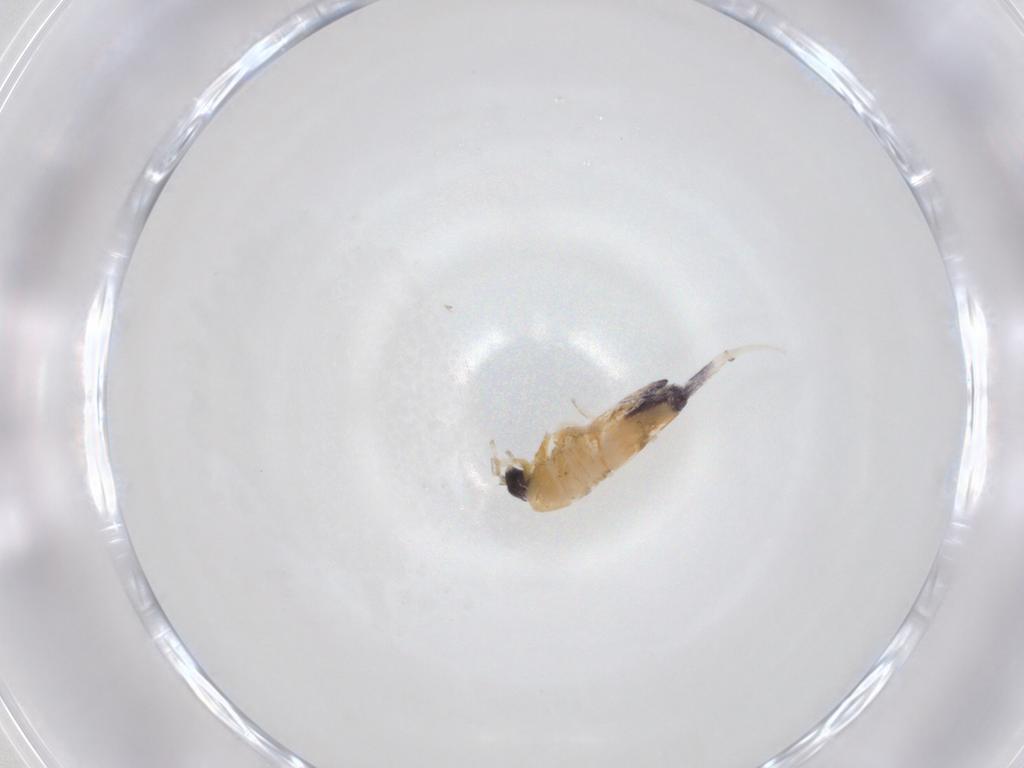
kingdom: Animalia
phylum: Arthropoda
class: Collembola
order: Entomobryomorpha
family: Entomobryidae
